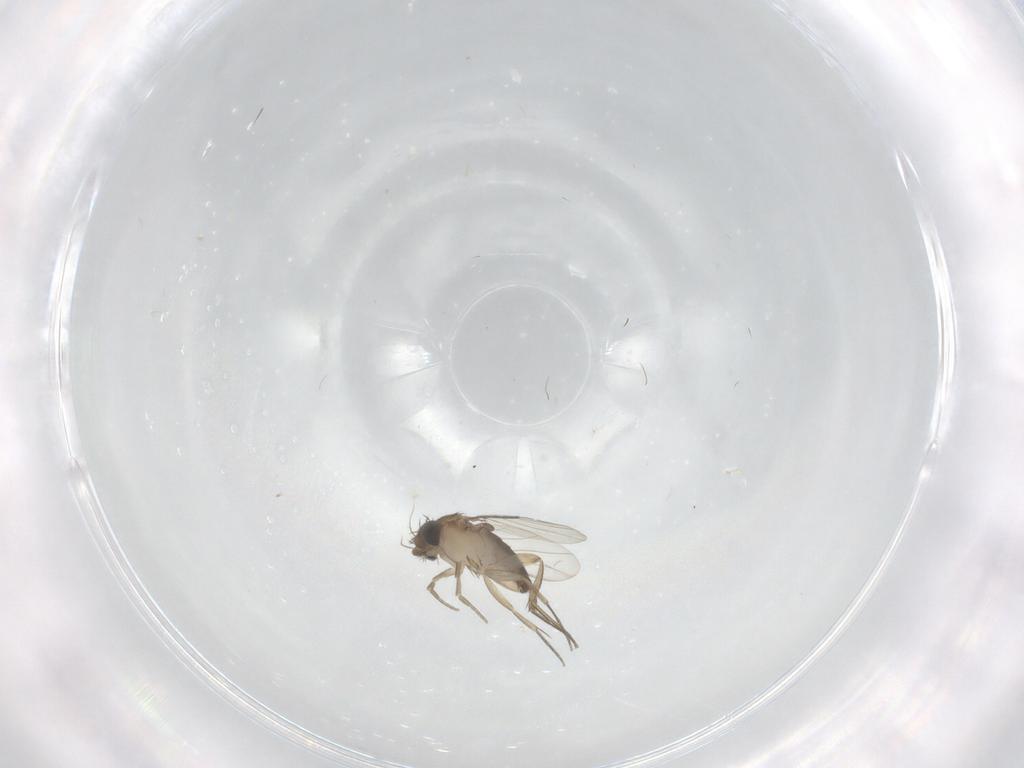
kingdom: Animalia
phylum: Arthropoda
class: Insecta
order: Diptera
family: Phoridae
